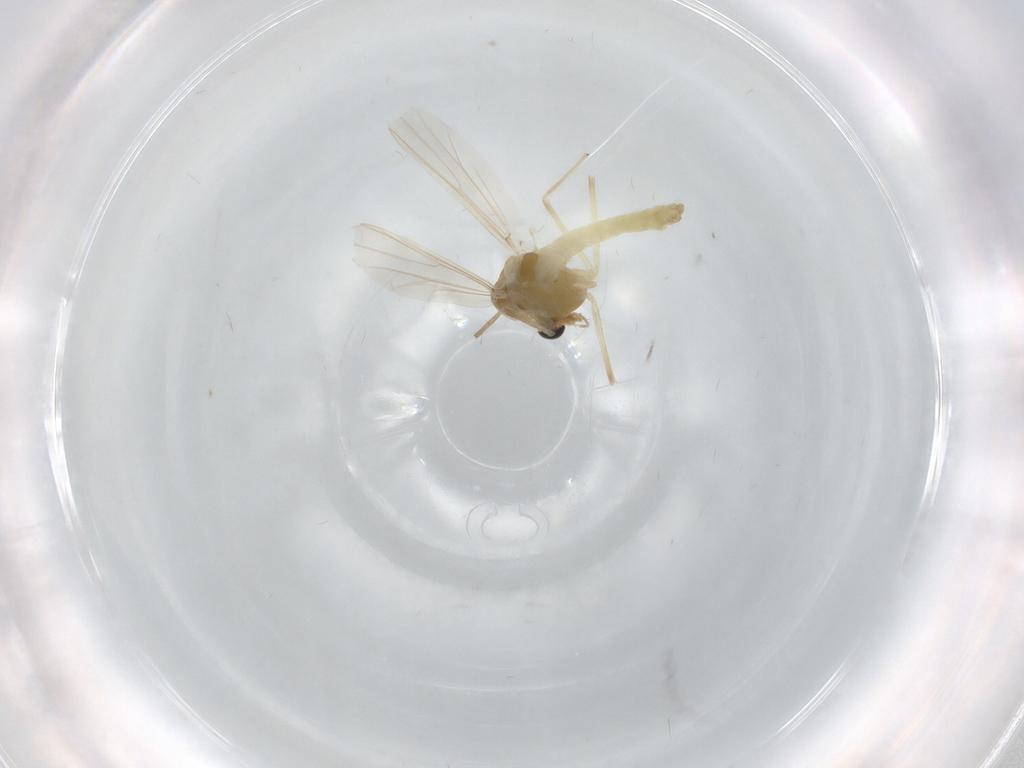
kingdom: Animalia
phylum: Arthropoda
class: Insecta
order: Diptera
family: Chironomidae
